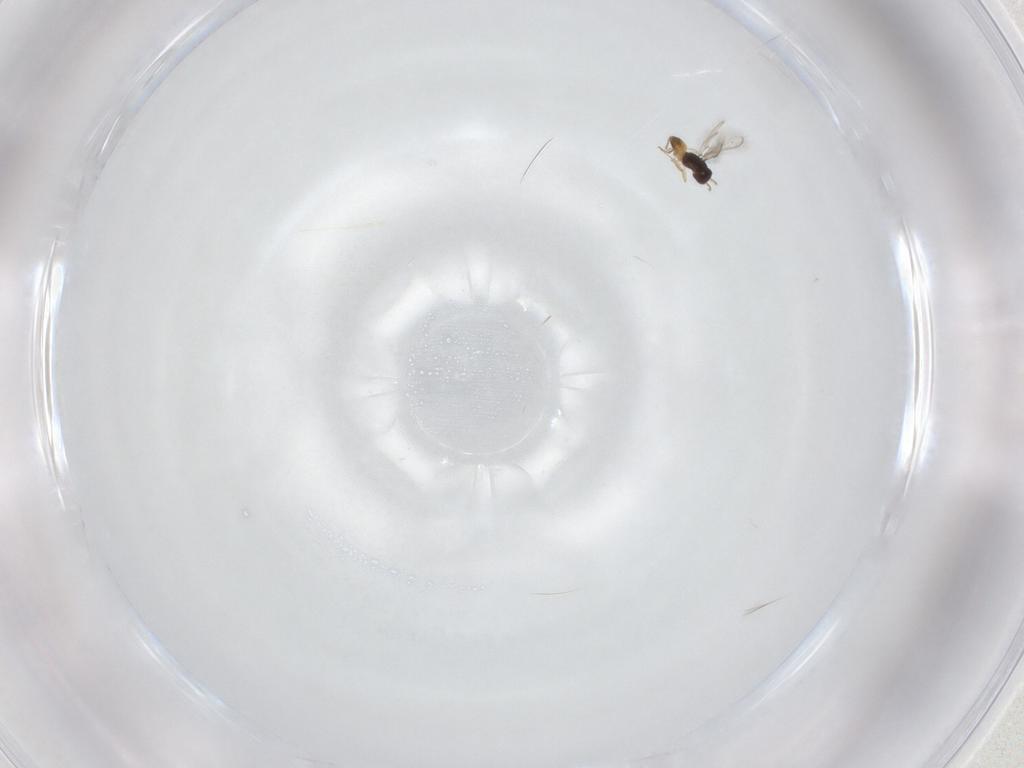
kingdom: Animalia
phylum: Arthropoda
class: Insecta
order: Hymenoptera
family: Mymaridae
